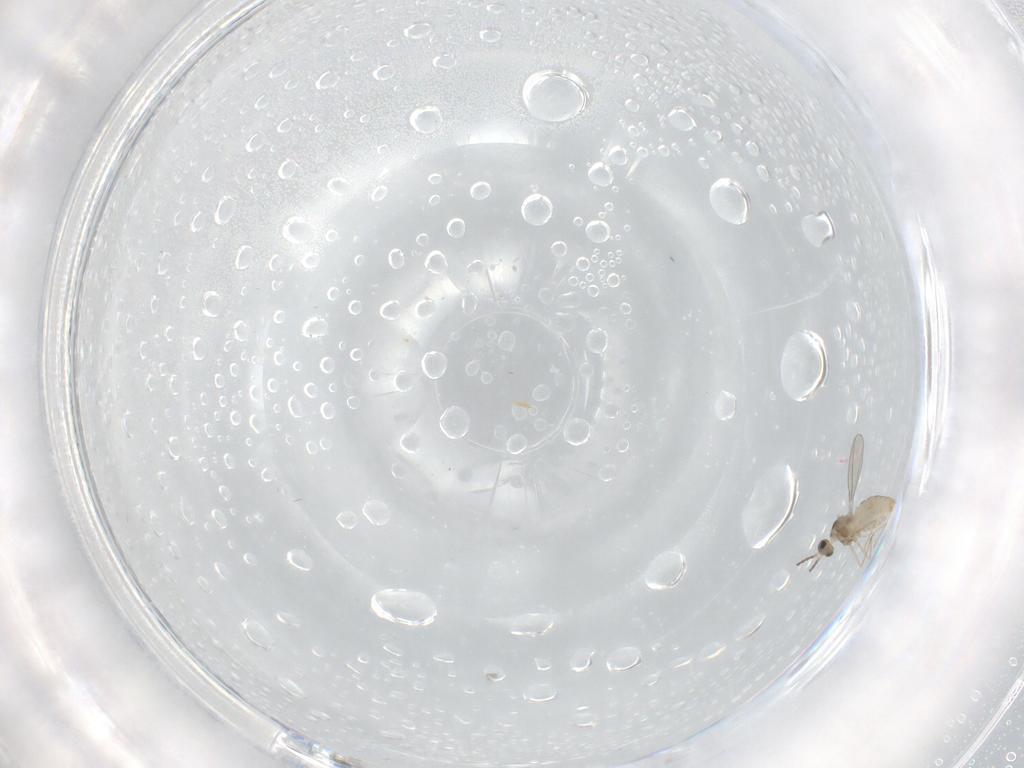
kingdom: Animalia
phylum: Arthropoda
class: Insecta
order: Diptera
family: Cecidomyiidae
